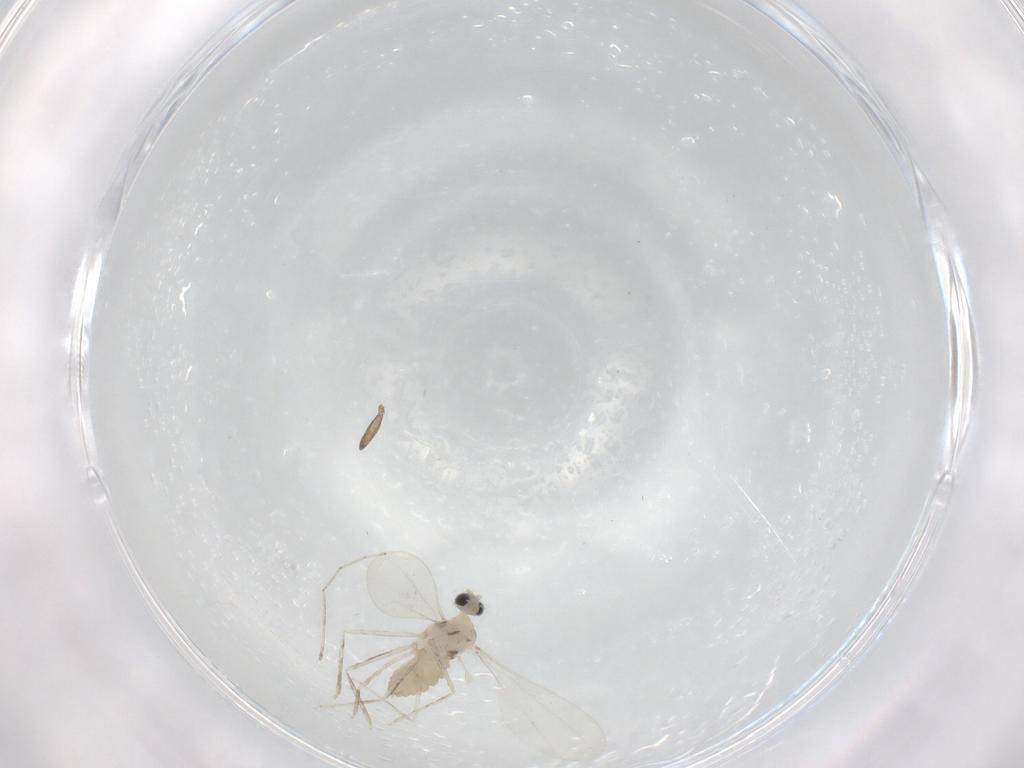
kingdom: Animalia
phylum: Arthropoda
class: Insecta
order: Diptera
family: Cecidomyiidae
